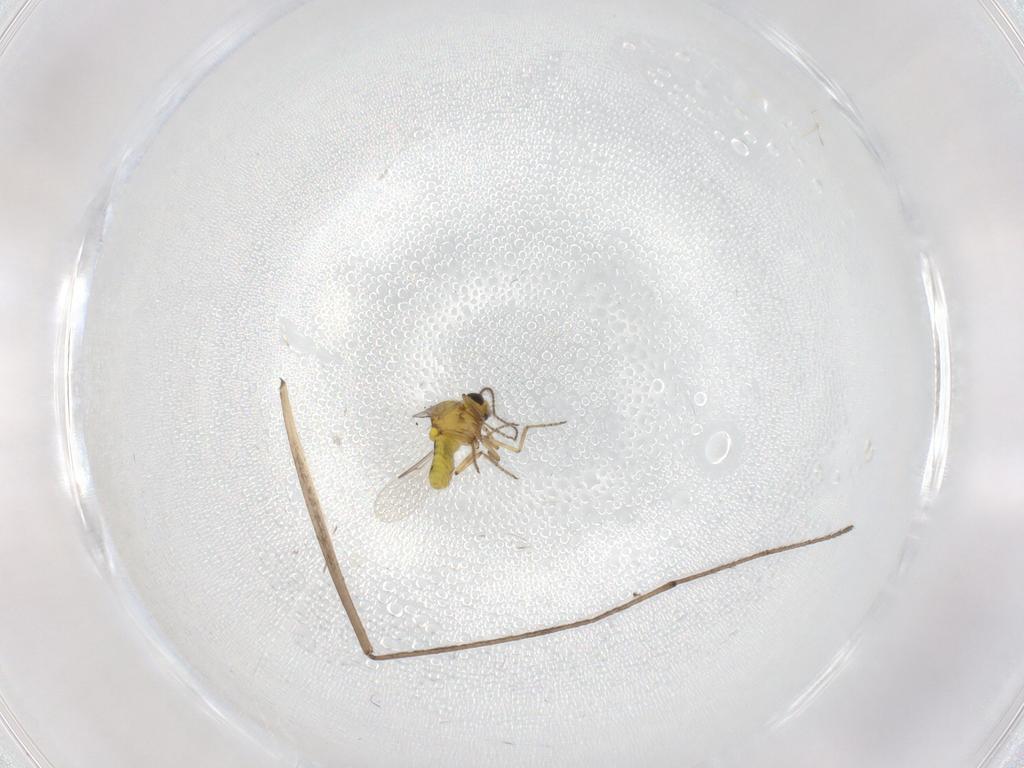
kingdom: Animalia
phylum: Arthropoda
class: Insecta
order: Diptera
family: Limoniidae
